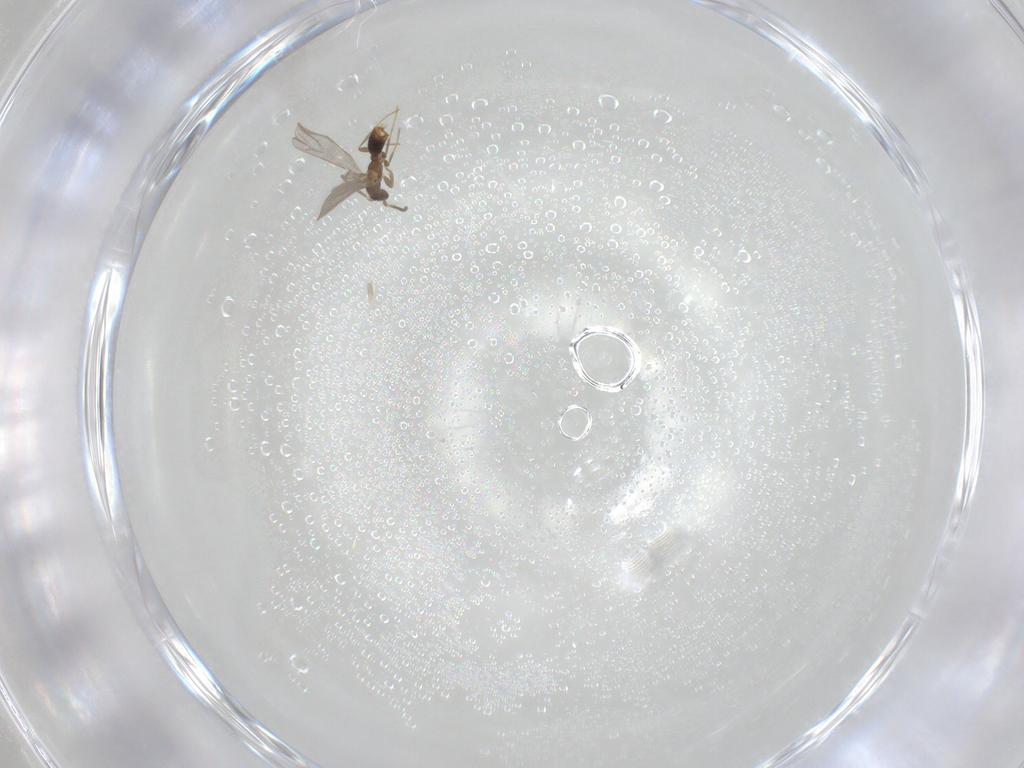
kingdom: Animalia
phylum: Arthropoda
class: Insecta
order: Hymenoptera
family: Formicidae
